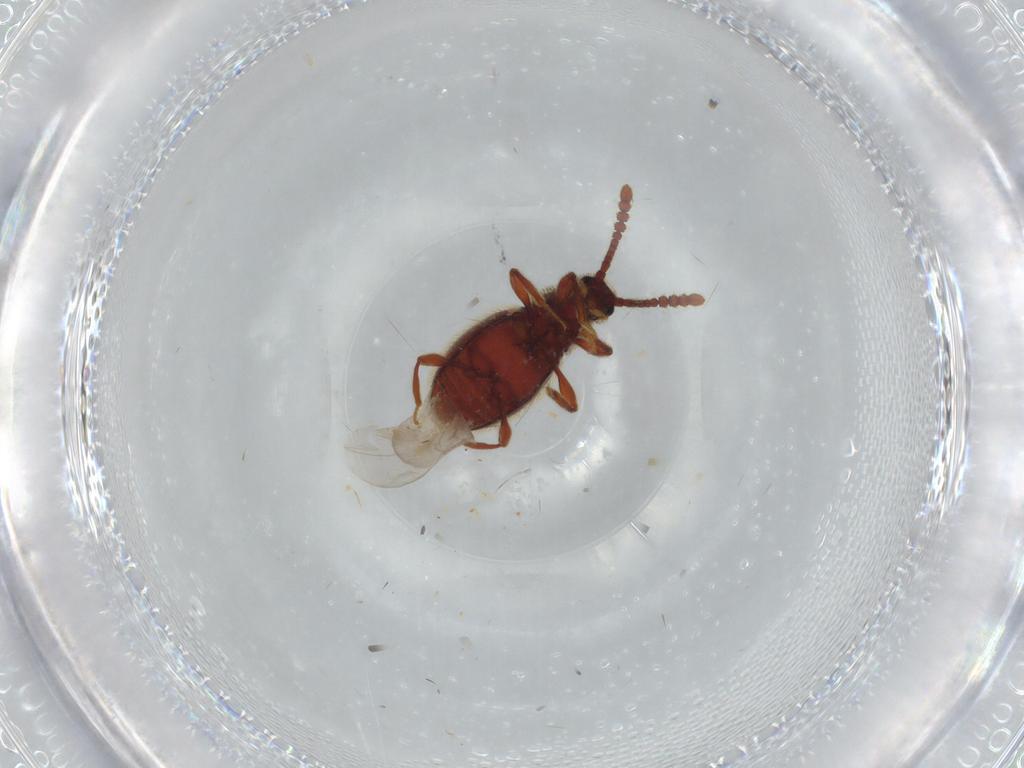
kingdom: Animalia
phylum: Arthropoda
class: Insecta
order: Coleoptera
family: Staphylinidae
